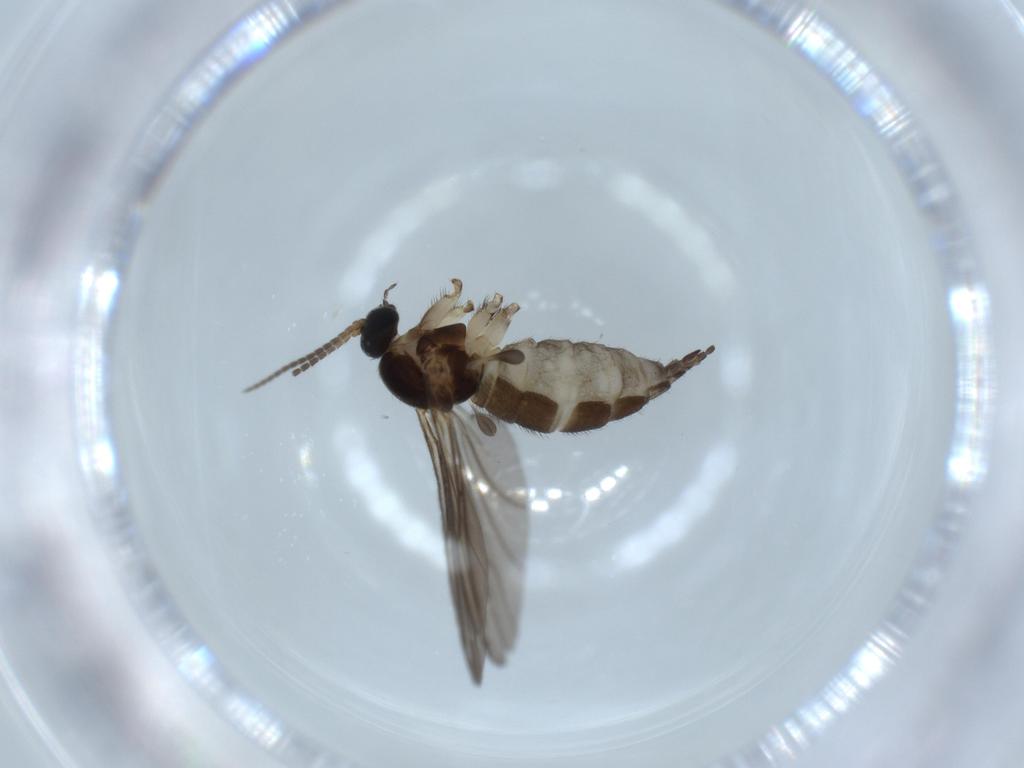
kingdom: Animalia
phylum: Arthropoda
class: Insecta
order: Diptera
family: Sciaridae
